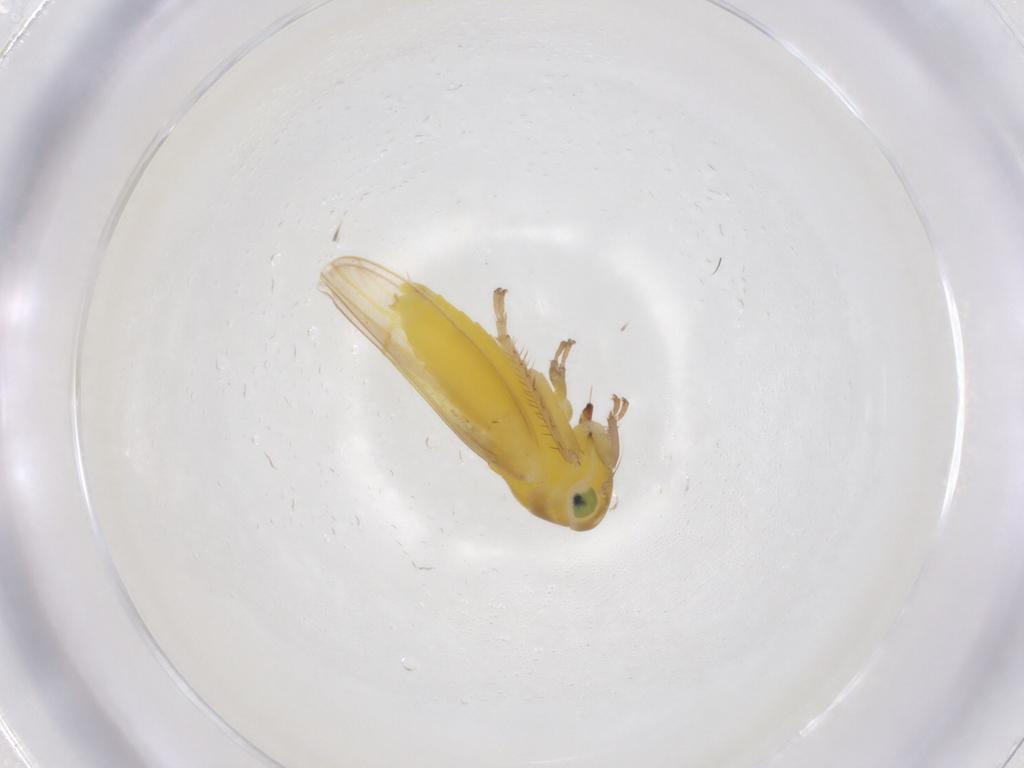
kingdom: Animalia
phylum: Arthropoda
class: Insecta
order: Hemiptera
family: Cicadellidae
